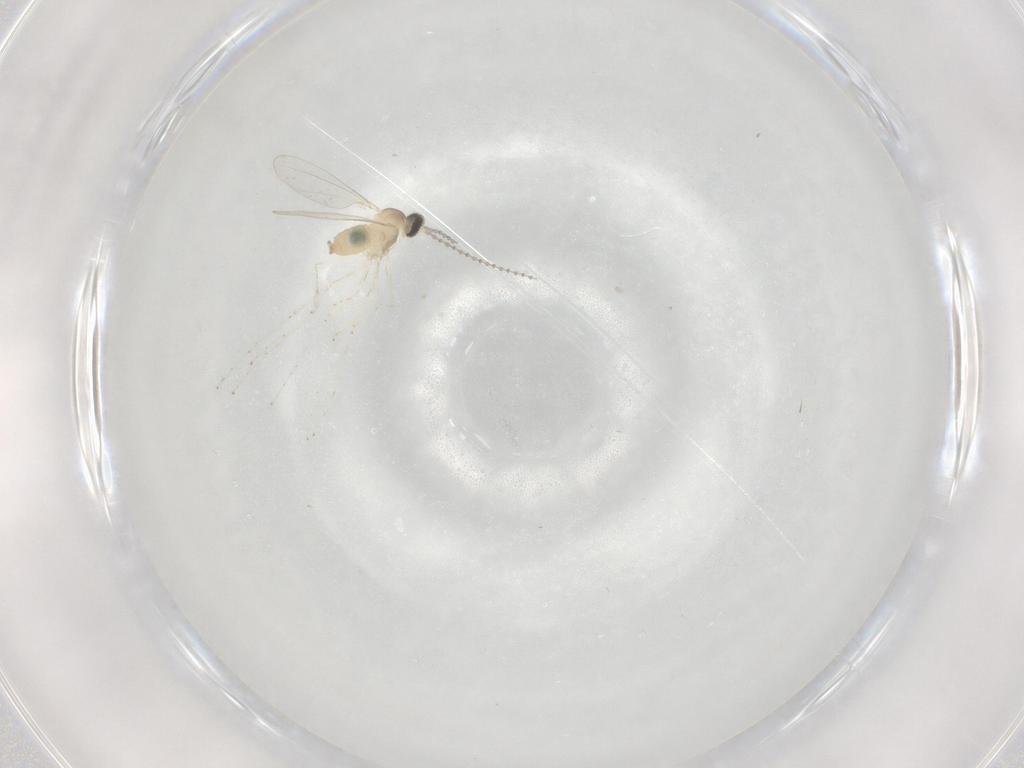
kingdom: Animalia
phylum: Arthropoda
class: Insecta
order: Diptera
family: Cecidomyiidae
